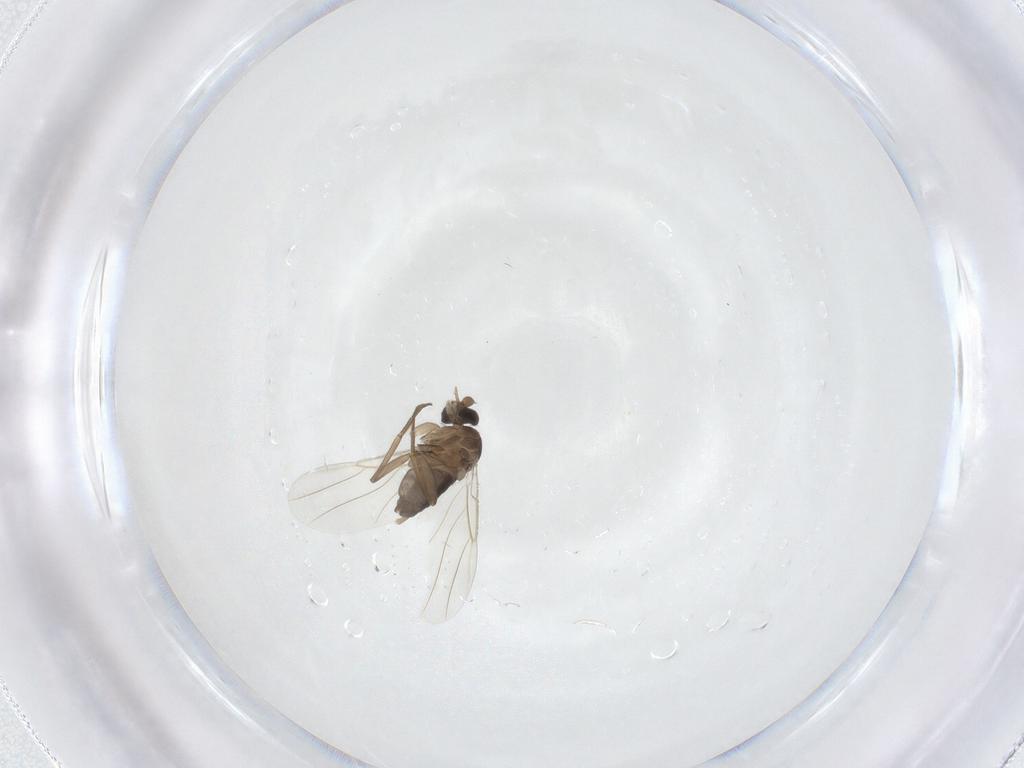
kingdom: Animalia
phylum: Arthropoda
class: Insecta
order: Diptera
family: Phoridae
